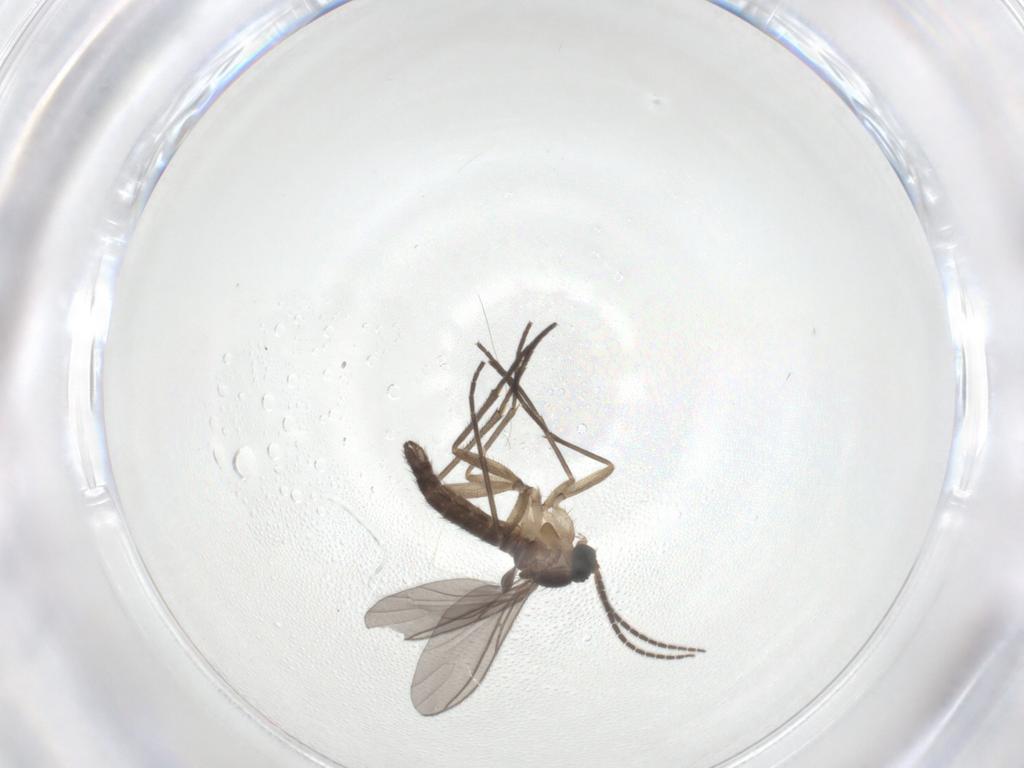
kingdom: Animalia
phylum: Arthropoda
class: Insecta
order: Diptera
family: Sciaridae
